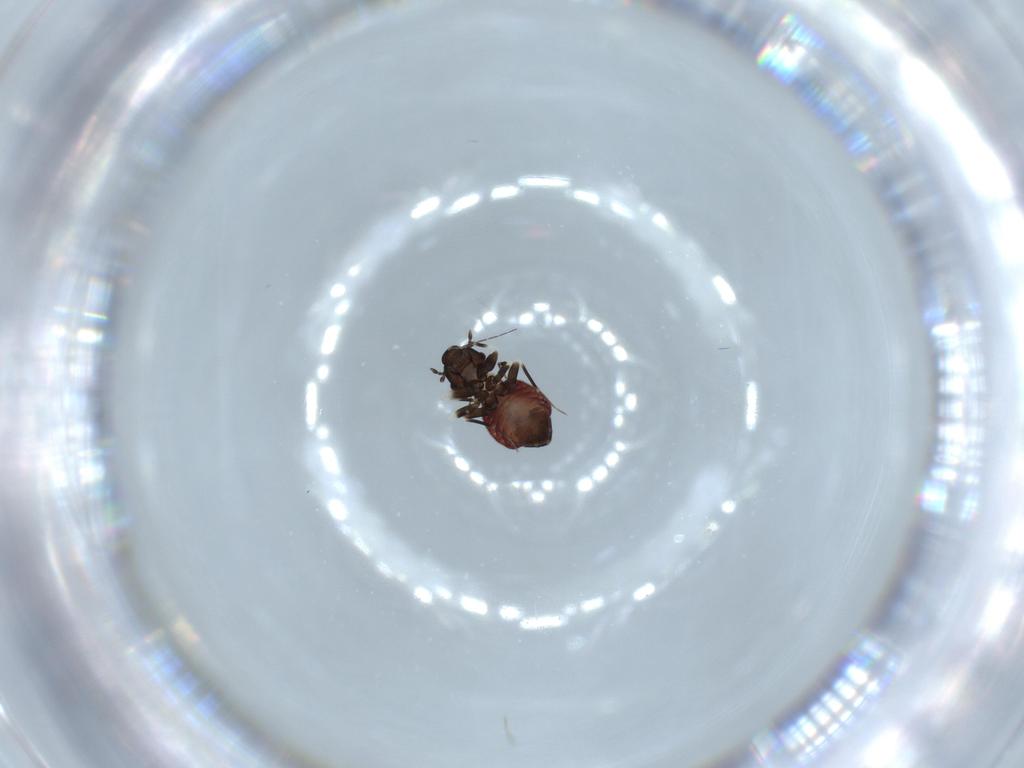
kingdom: Animalia
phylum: Arthropoda
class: Insecta
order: Psocodea
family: Lepidopsocidae
